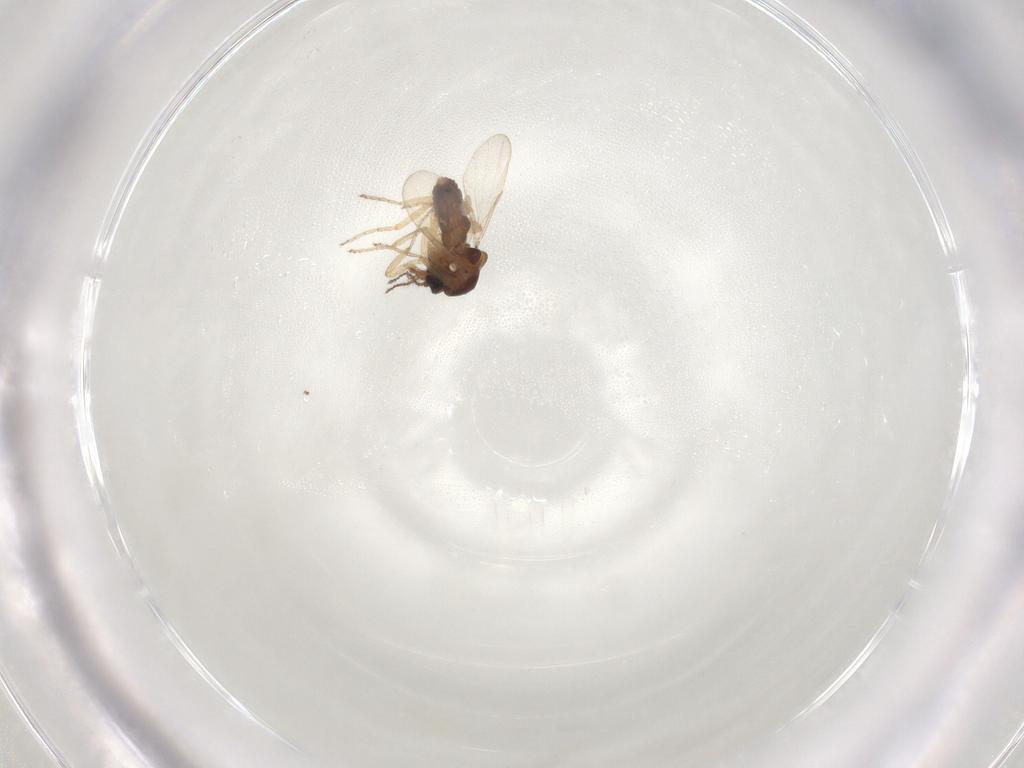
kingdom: Animalia
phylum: Arthropoda
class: Insecta
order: Diptera
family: Ceratopogonidae
